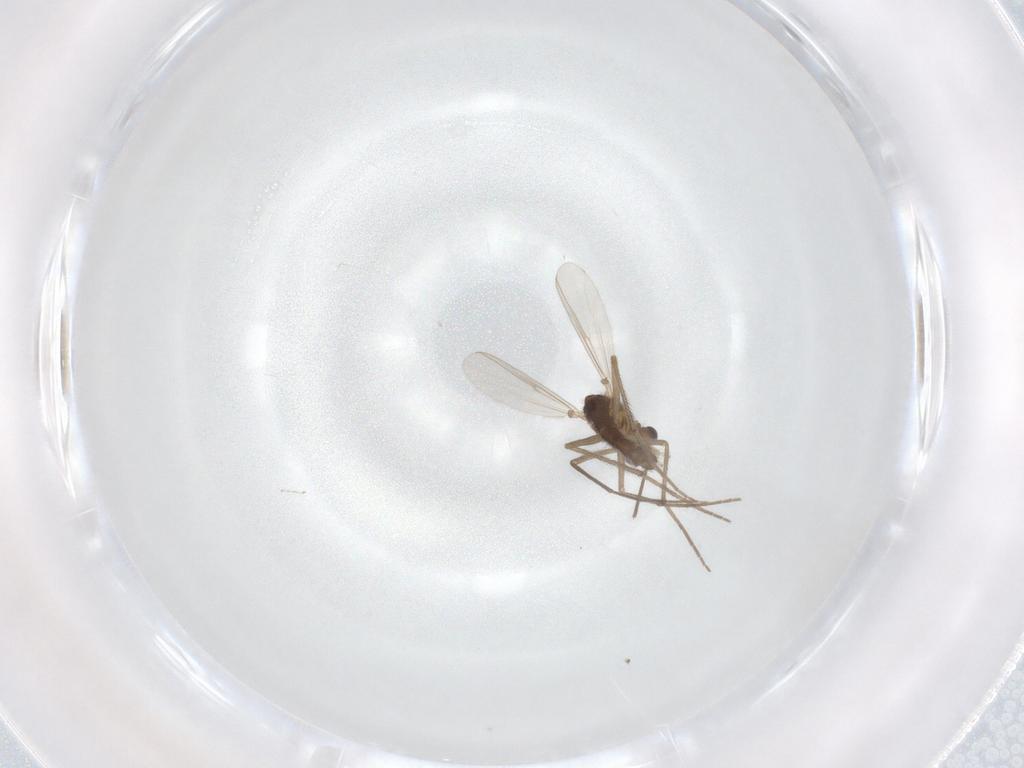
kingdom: Animalia
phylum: Arthropoda
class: Insecta
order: Diptera
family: Chironomidae
